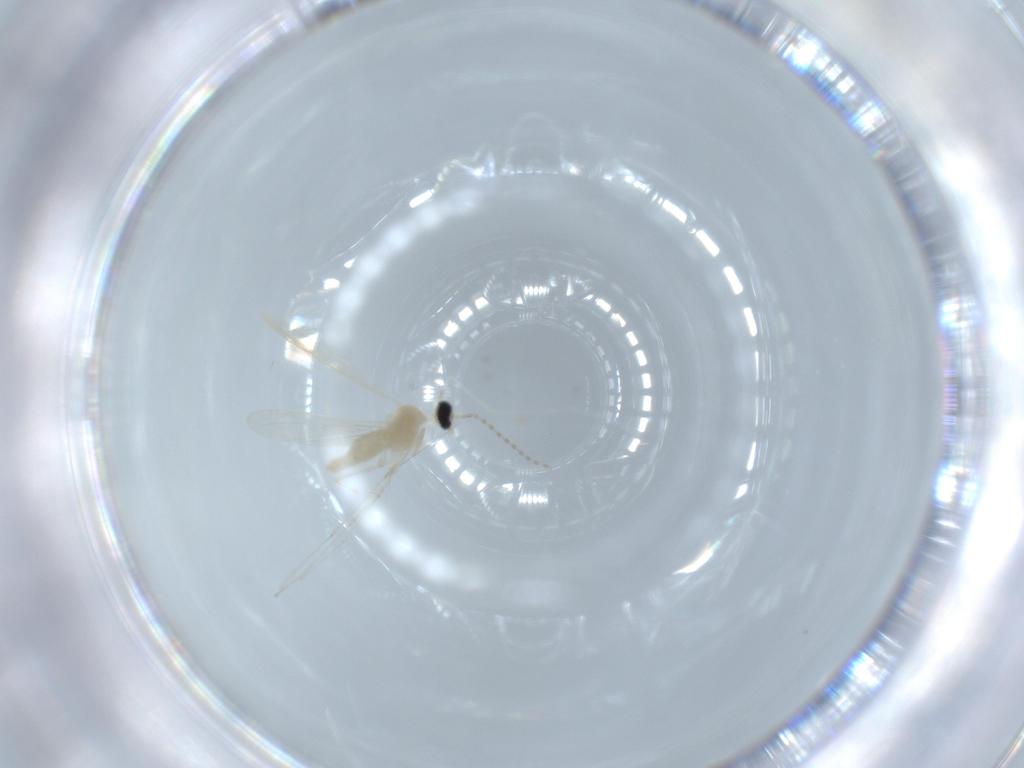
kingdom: Animalia
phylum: Arthropoda
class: Insecta
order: Diptera
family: Cecidomyiidae
